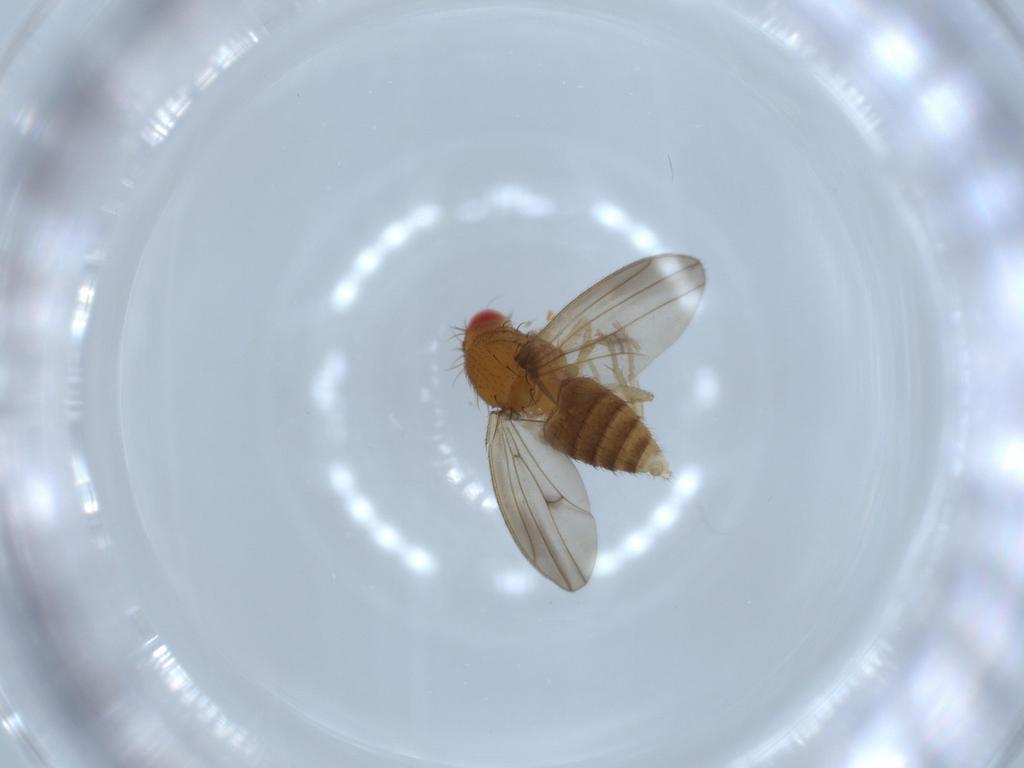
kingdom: Animalia
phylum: Arthropoda
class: Insecta
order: Diptera
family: Drosophilidae
